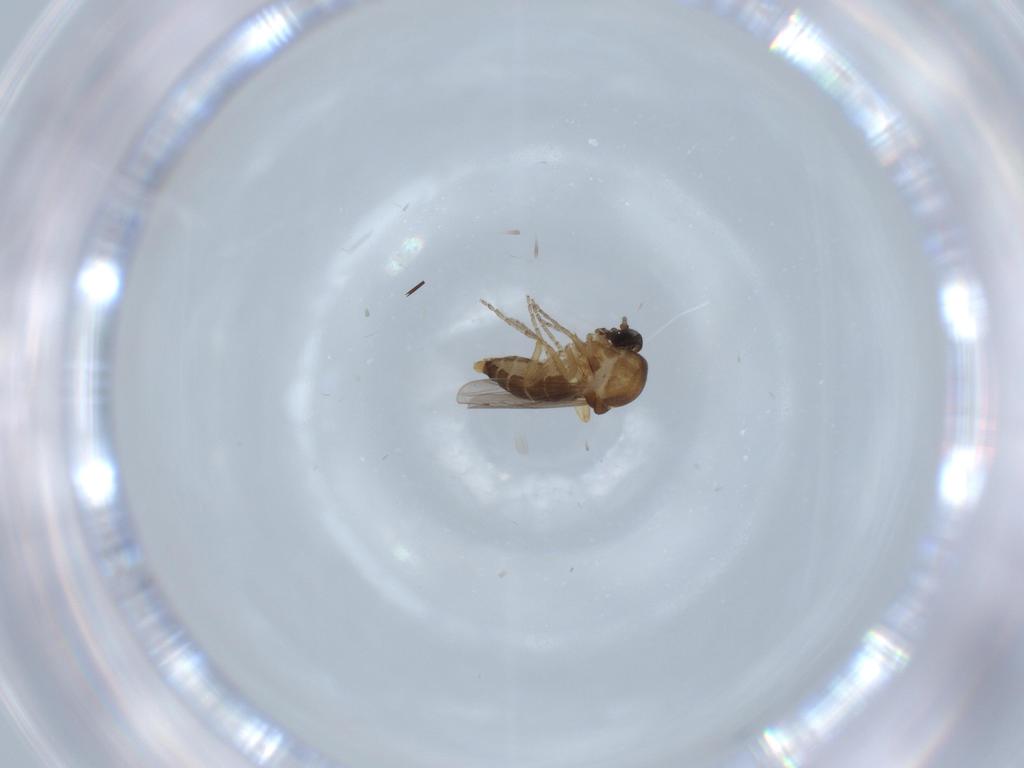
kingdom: Animalia
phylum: Arthropoda
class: Insecta
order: Diptera
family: Ceratopogonidae
